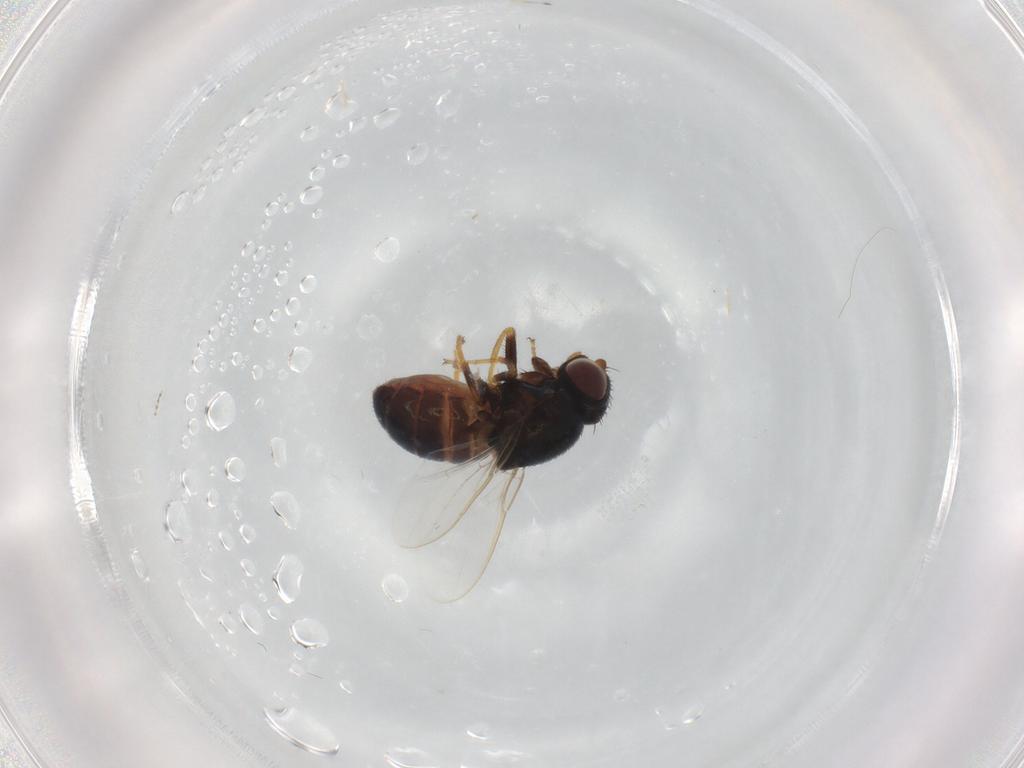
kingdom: Animalia
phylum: Arthropoda
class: Insecta
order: Diptera
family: Chloropidae
